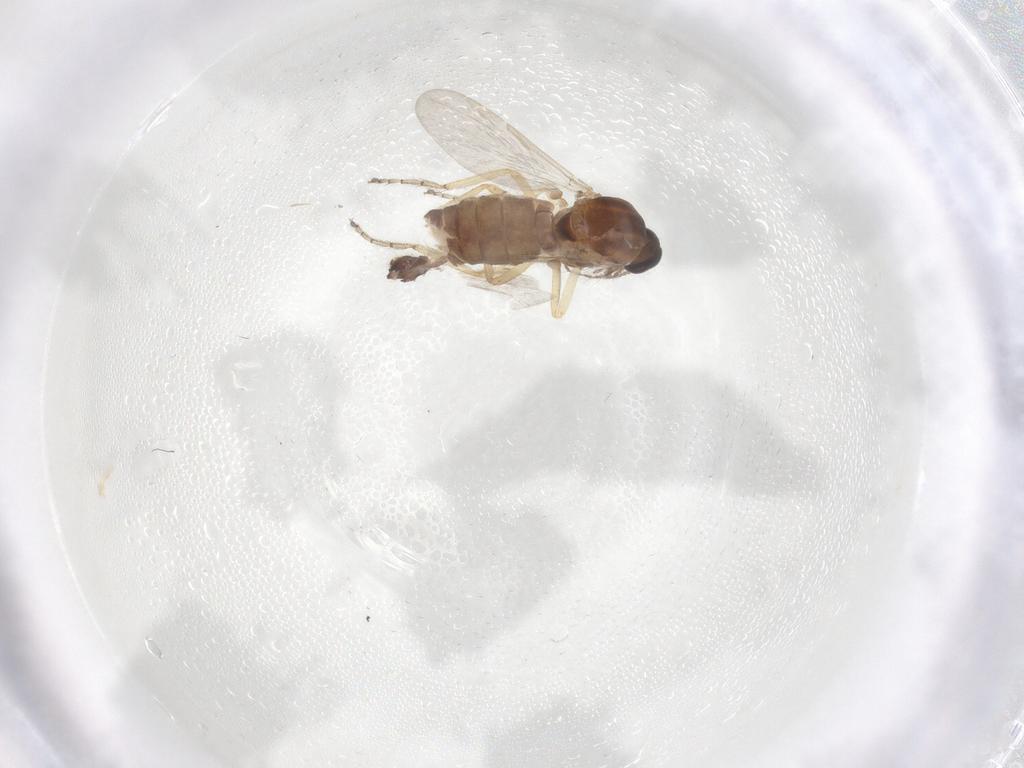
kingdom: Animalia
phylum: Arthropoda
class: Insecta
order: Diptera
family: Ceratopogonidae
